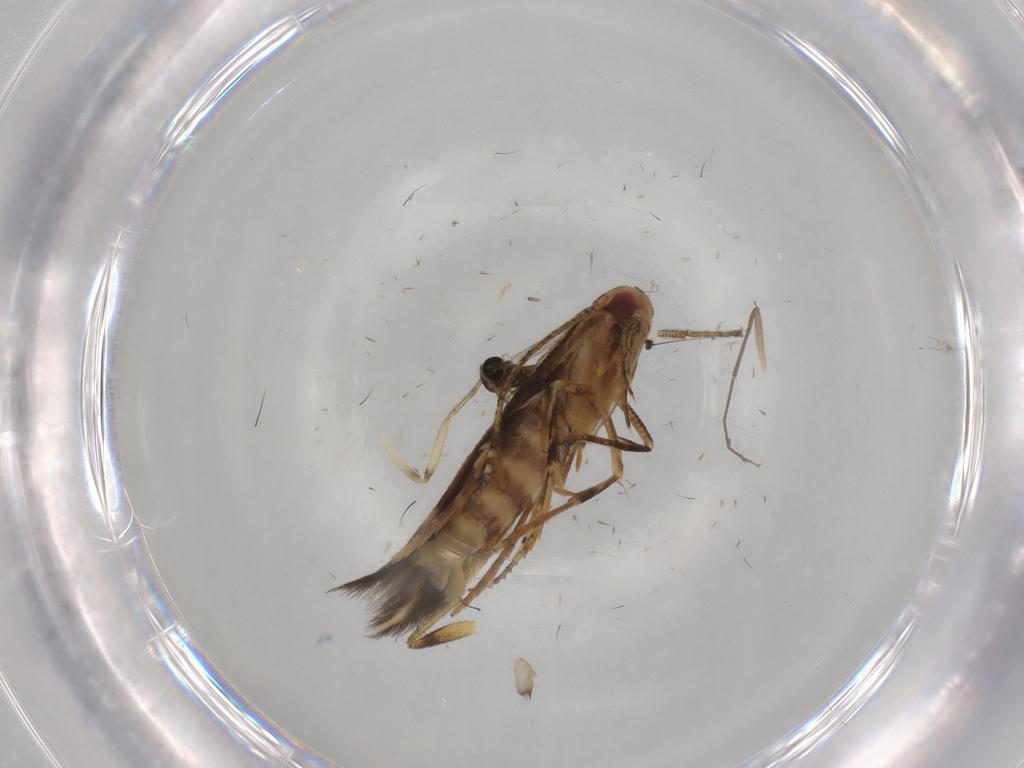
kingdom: Animalia
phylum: Arthropoda
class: Insecta
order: Diptera
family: Ceratopogonidae
